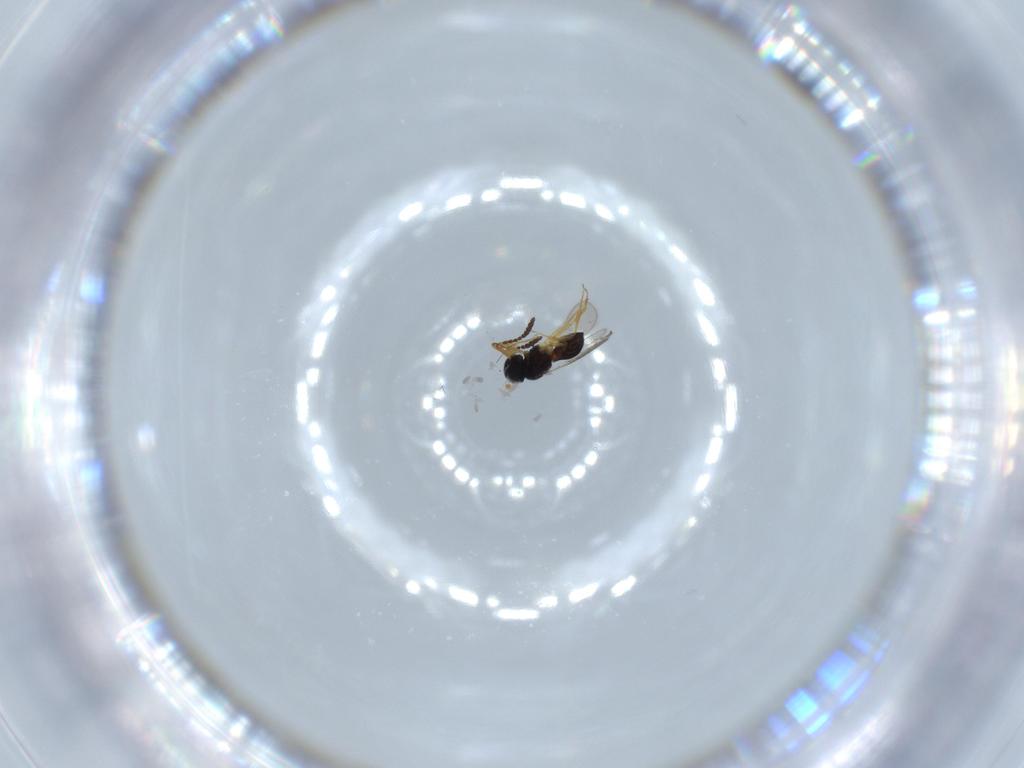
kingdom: Animalia
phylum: Arthropoda
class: Insecta
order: Hymenoptera
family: Scelionidae
